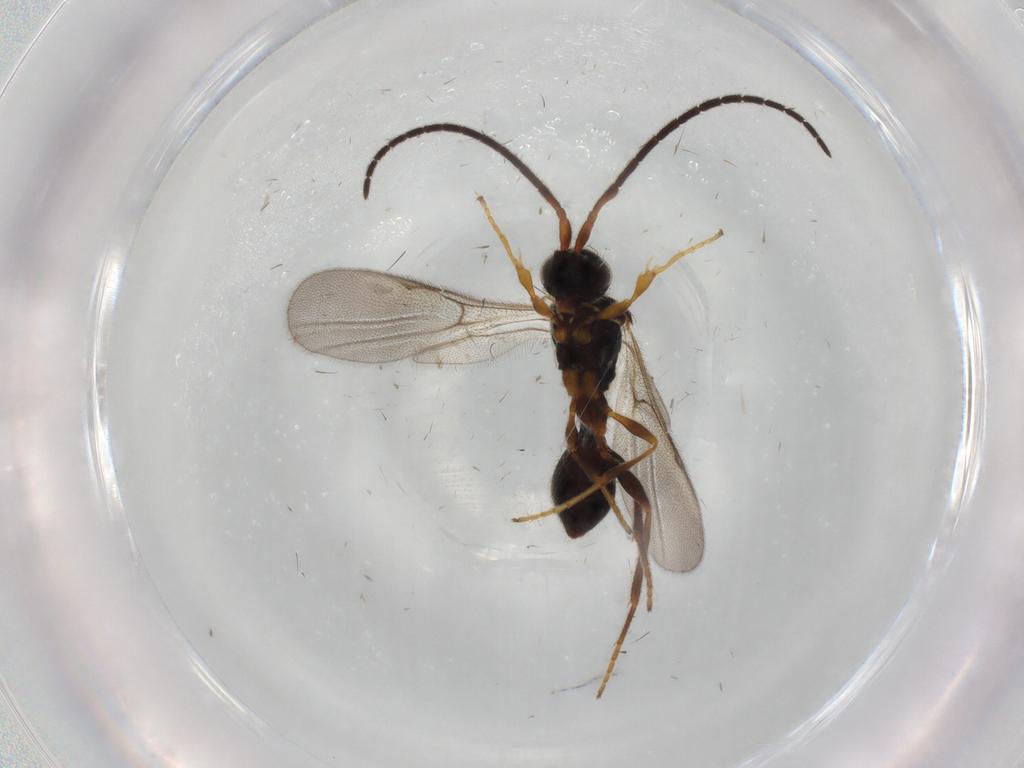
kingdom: Animalia
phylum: Arthropoda
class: Insecta
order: Hymenoptera
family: Formicidae
